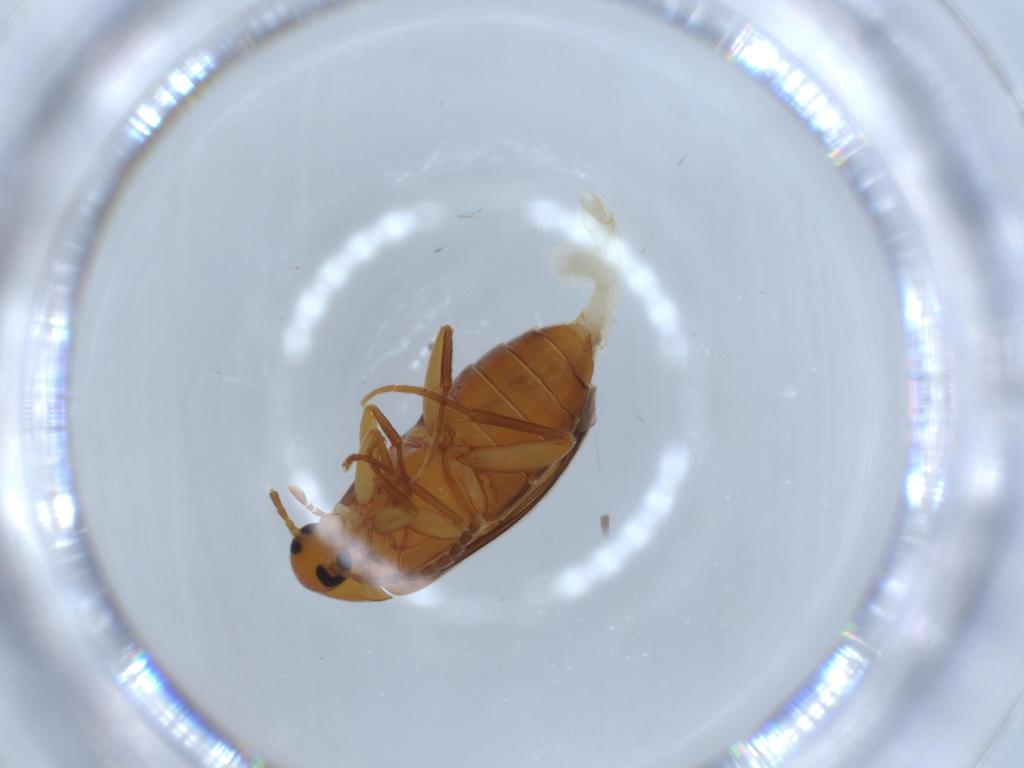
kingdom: Animalia
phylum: Arthropoda
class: Insecta
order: Coleoptera
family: Scraptiidae
